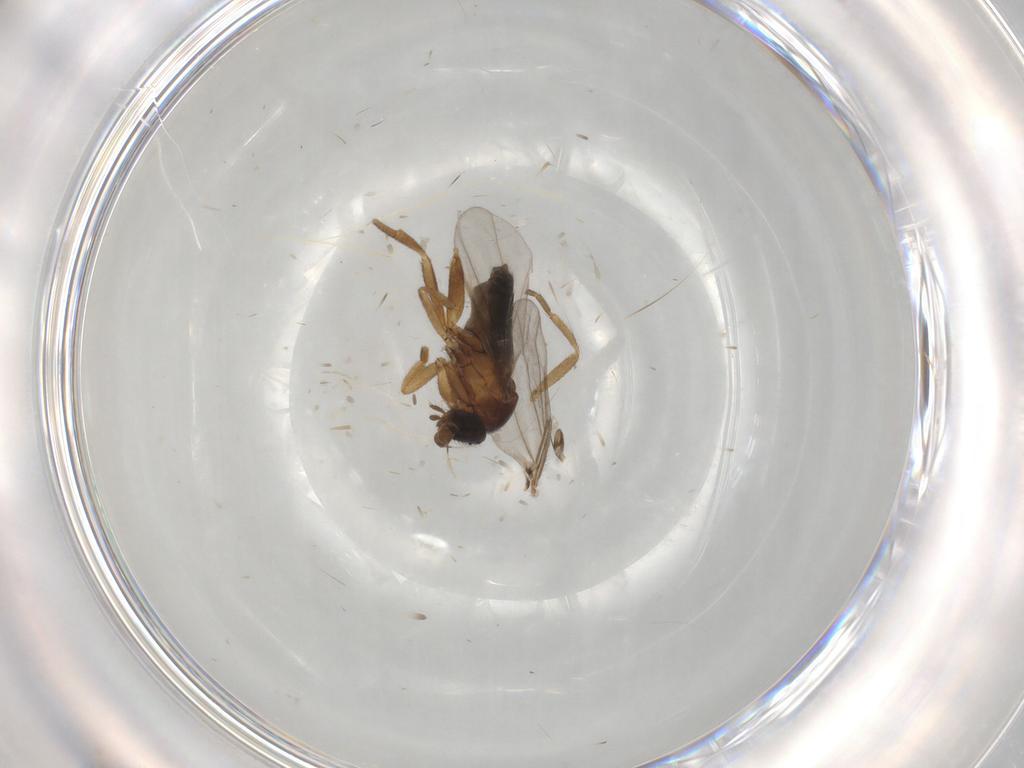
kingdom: Animalia
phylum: Arthropoda
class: Insecta
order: Diptera
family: Glossinidae
